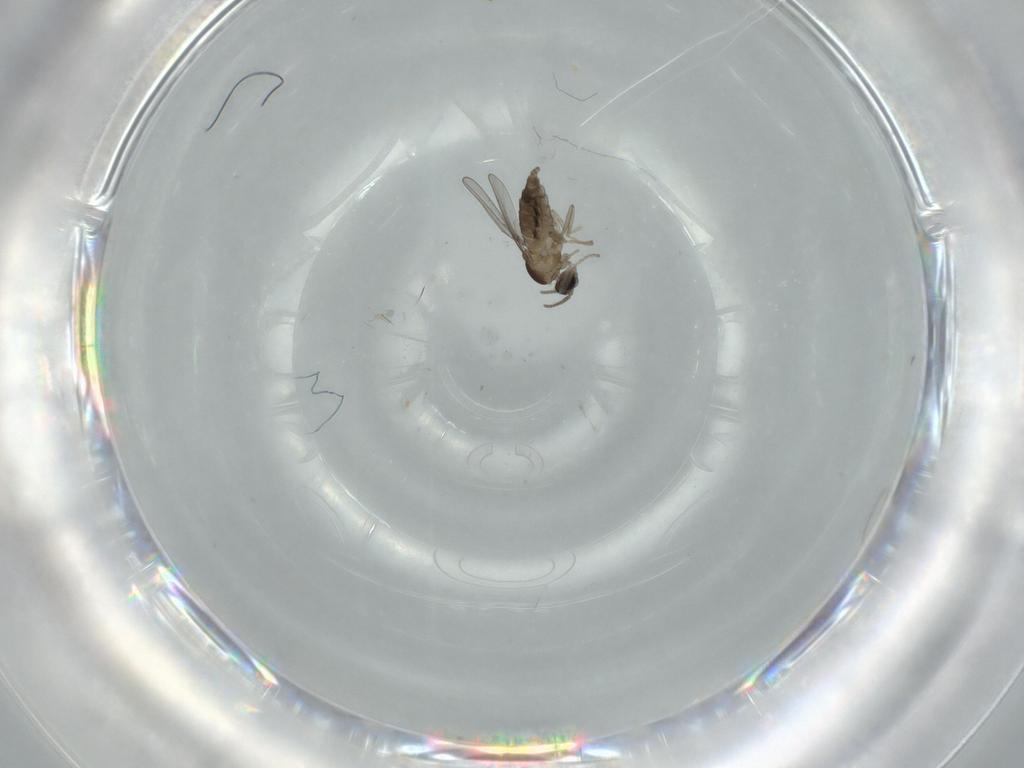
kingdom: Animalia
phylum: Arthropoda
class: Insecta
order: Diptera
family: Cecidomyiidae
